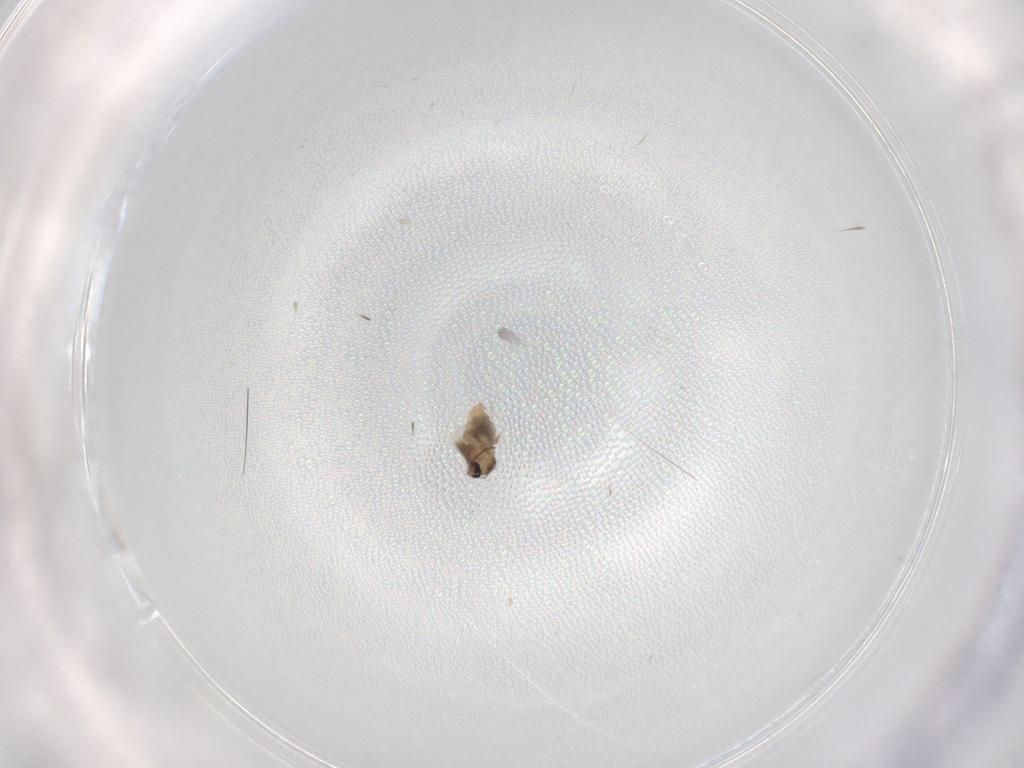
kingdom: Animalia
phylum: Arthropoda
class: Insecta
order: Diptera
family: Cecidomyiidae
